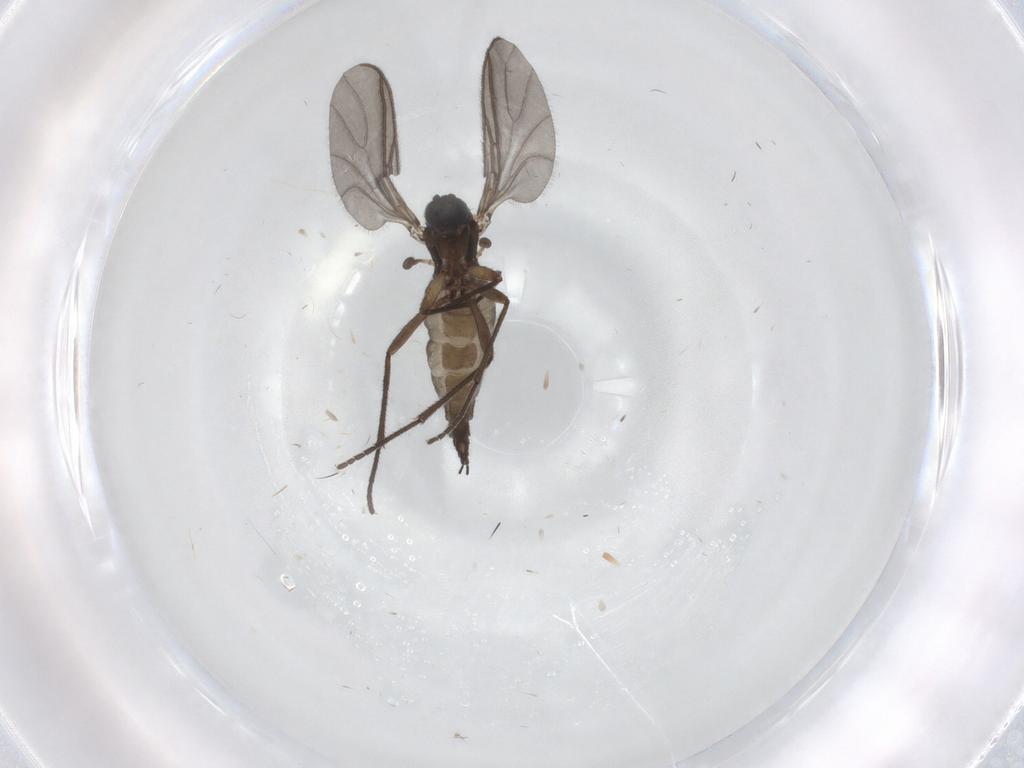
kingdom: Animalia
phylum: Arthropoda
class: Insecta
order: Diptera
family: Sciaridae
